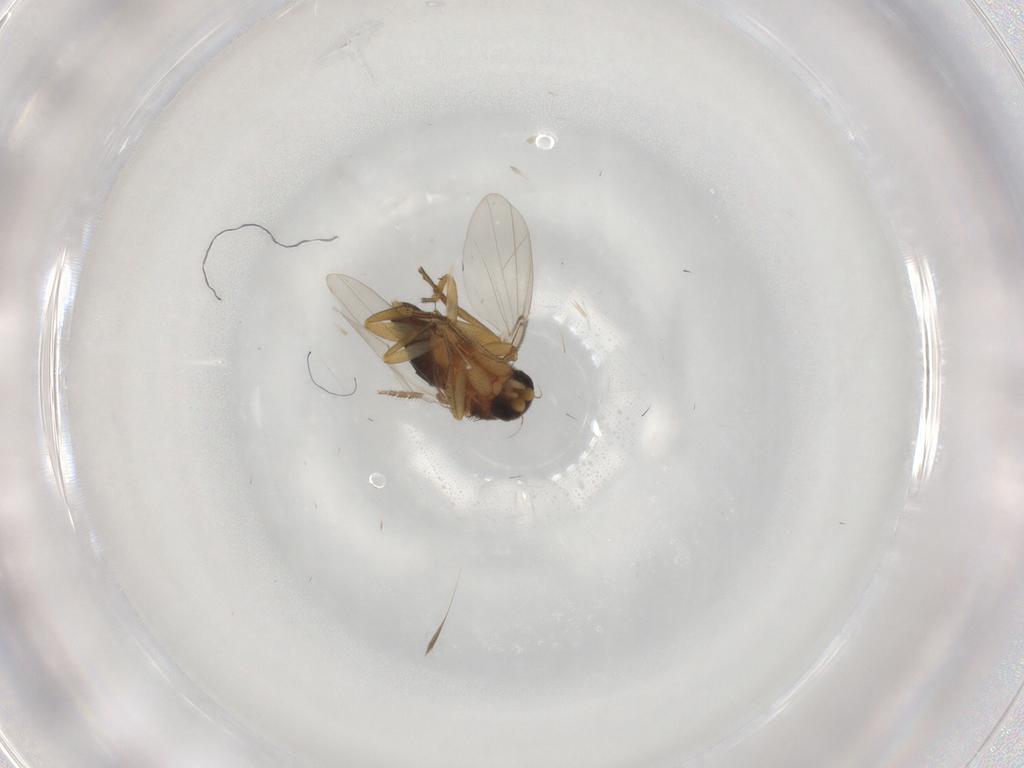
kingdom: Animalia
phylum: Arthropoda
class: Insecta
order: Diptera
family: Phoridae
